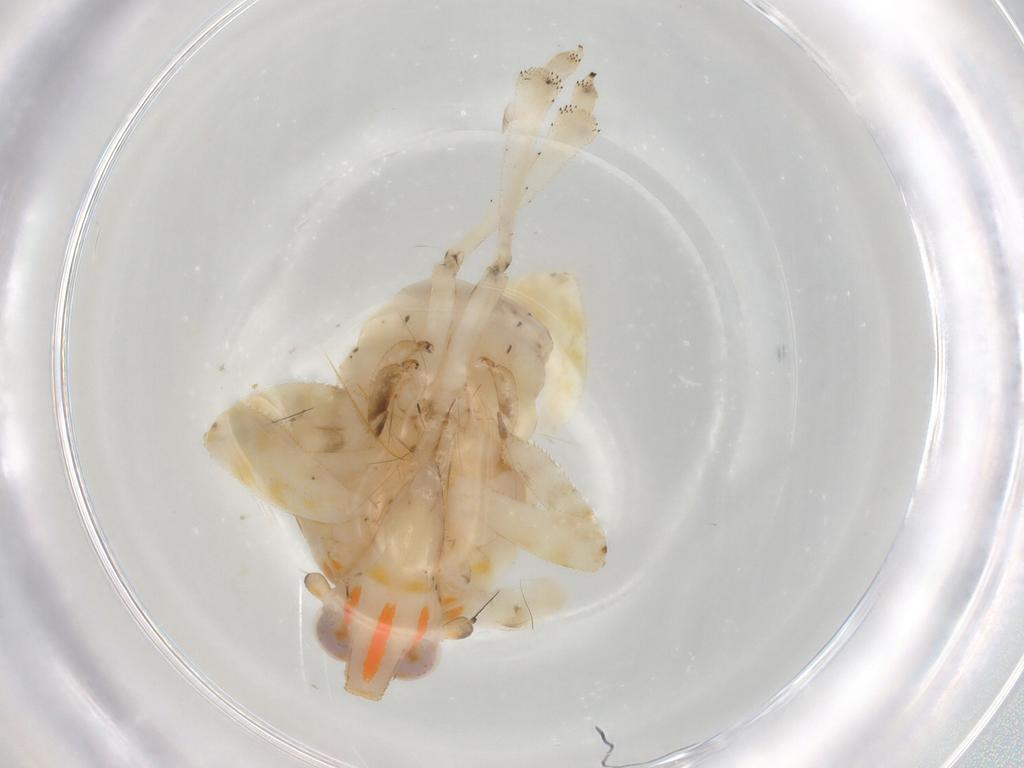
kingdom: Animalia
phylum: Arthropoda
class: Insecta
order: Hemiptera
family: Lophopidae
